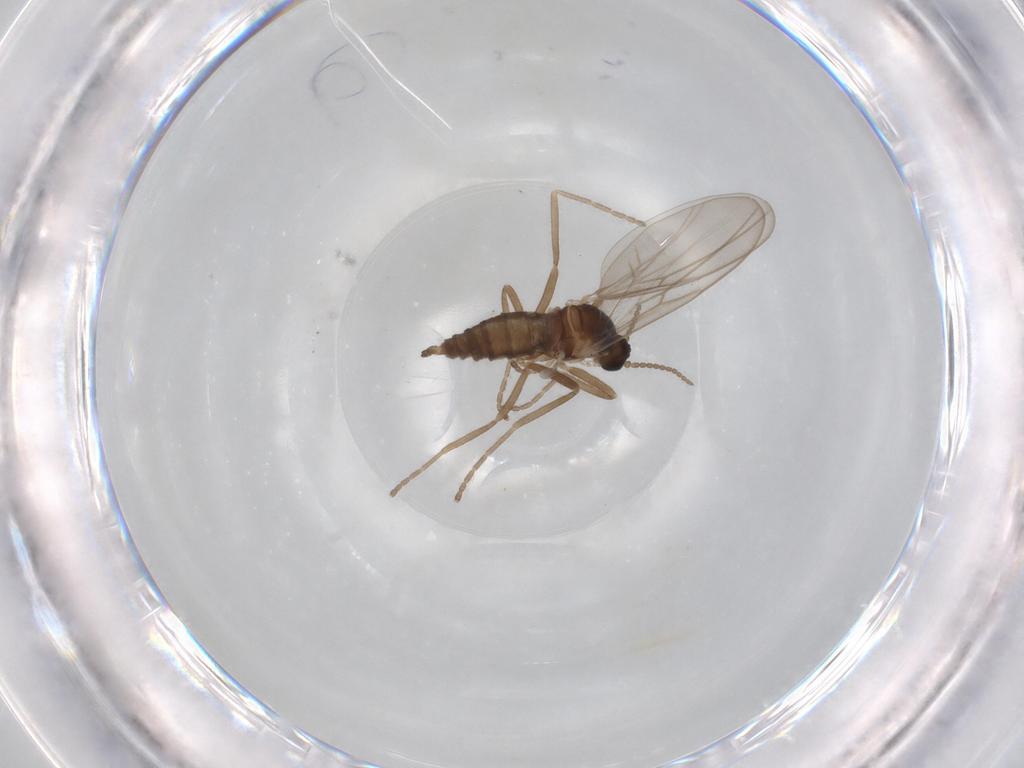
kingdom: Animalia
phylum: Arthropoda
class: Insecta
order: Diptera
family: Cecidomyiidae
